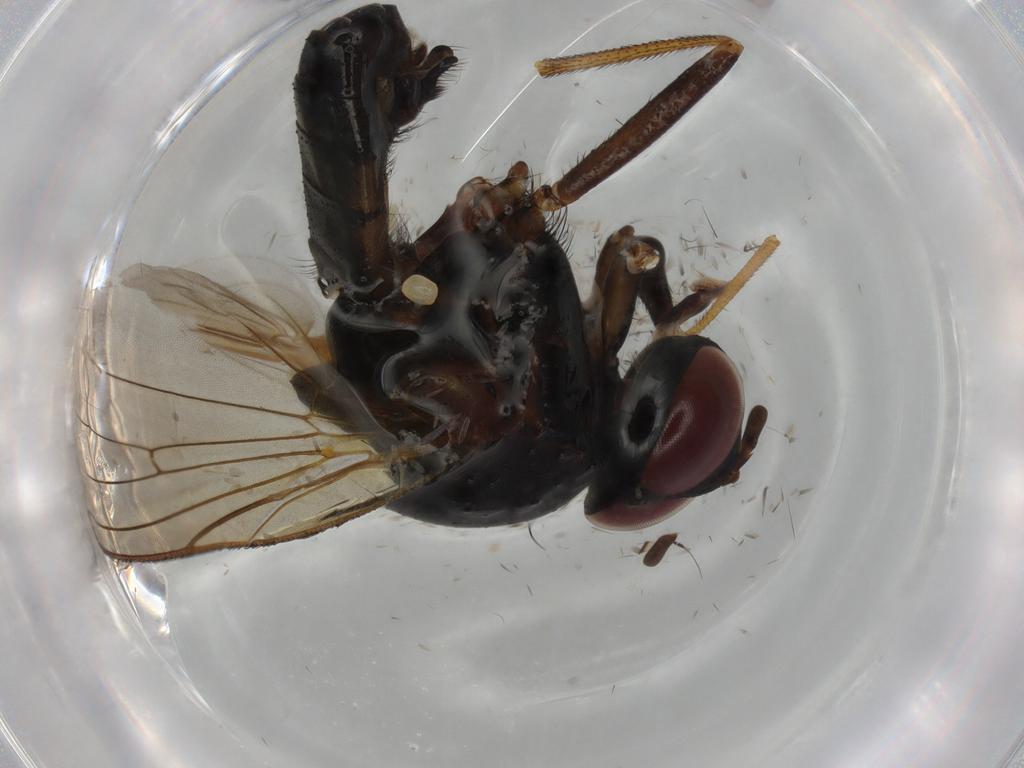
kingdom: Animalia
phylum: Arthropoda
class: Insecta
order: Diptera
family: Anthomyiidae
